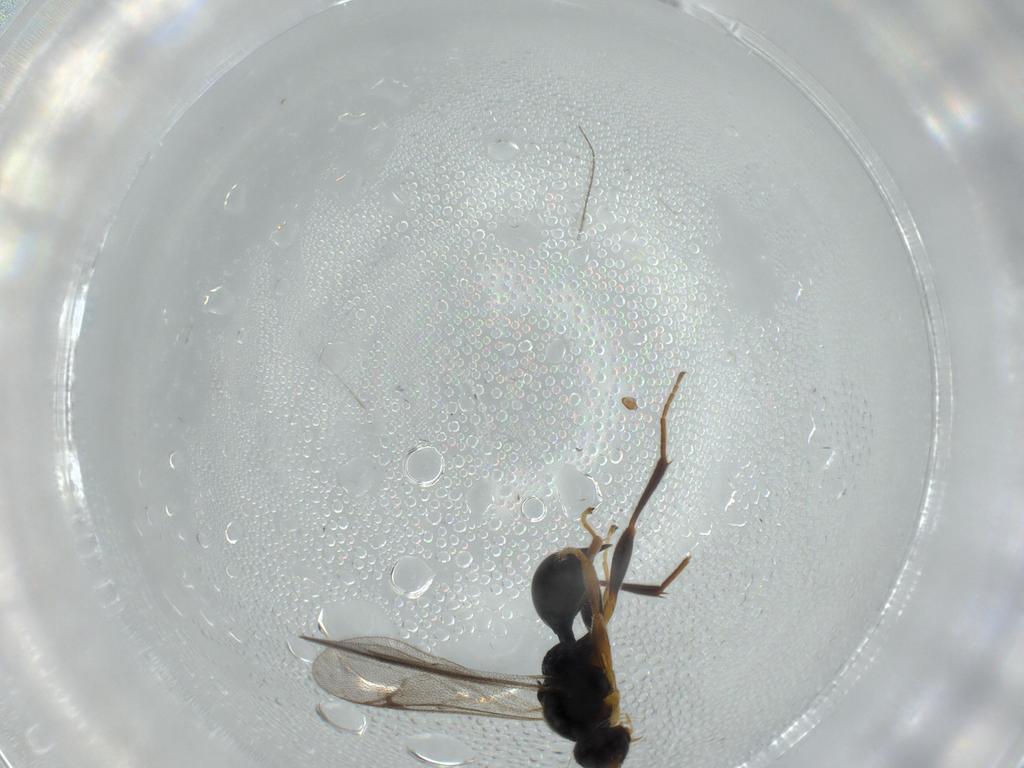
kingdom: Animalia
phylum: Arthropoda
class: Insecta
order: Hymenoptera
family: Proctotrupidae
